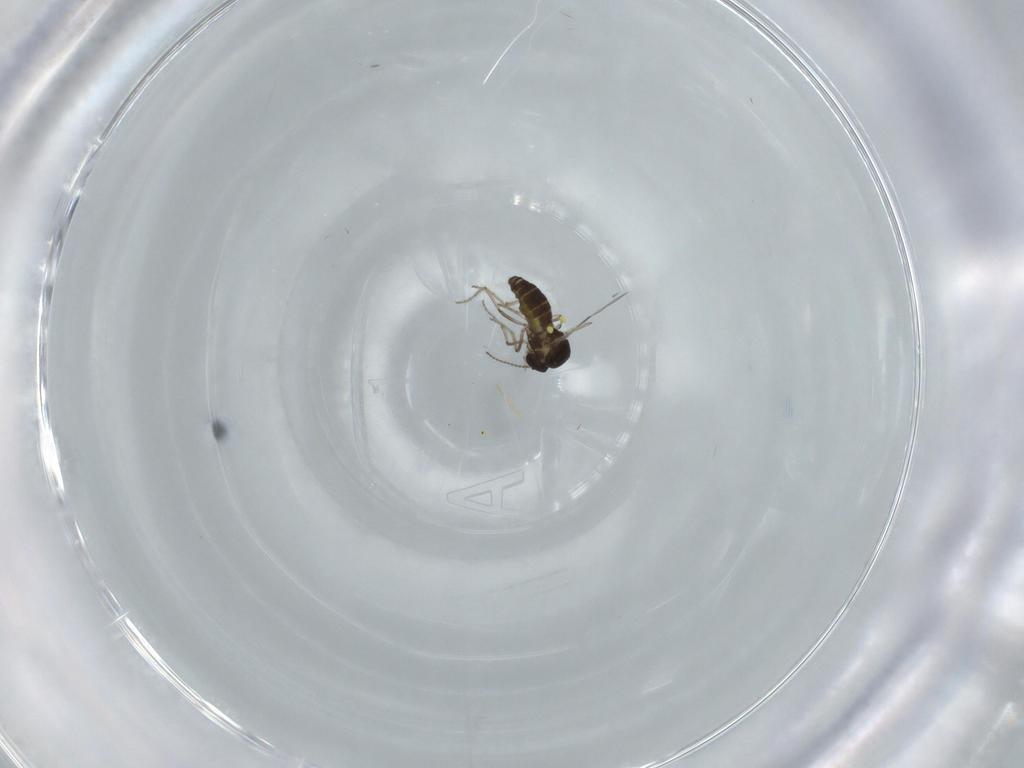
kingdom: Animalia
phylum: Arthropoda
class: Insecta
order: Diptera
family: Ceratopogonidae
